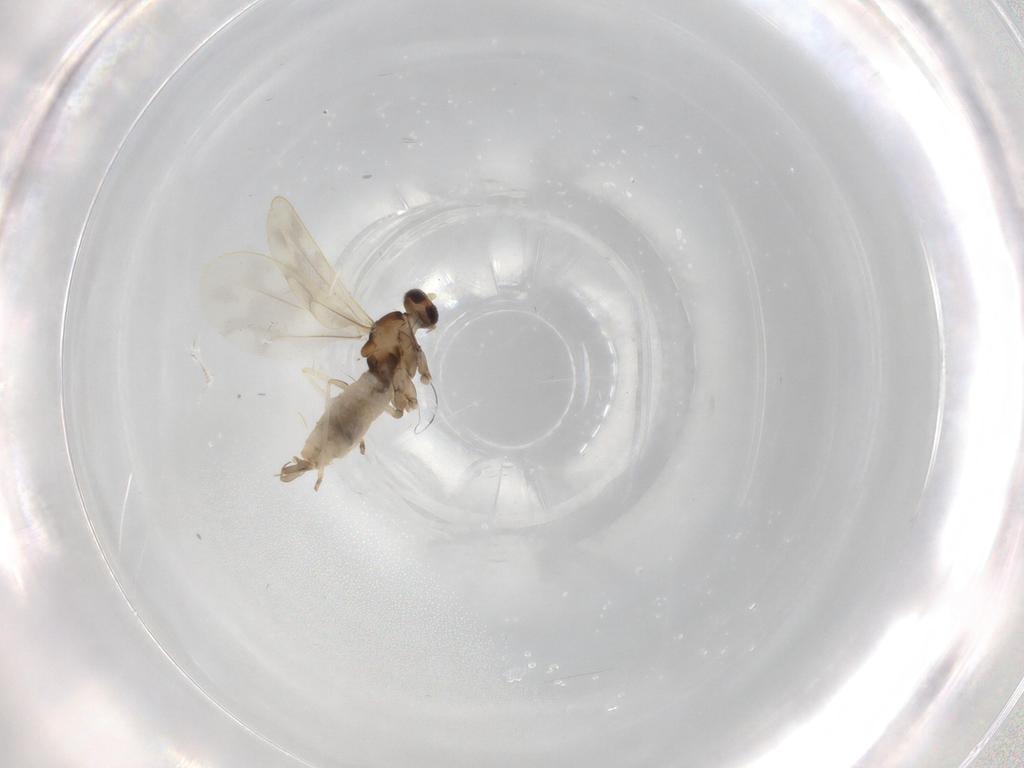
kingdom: Animalia
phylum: Arthropoda
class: Insecta
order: Diptera
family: Cecidomyiidae
